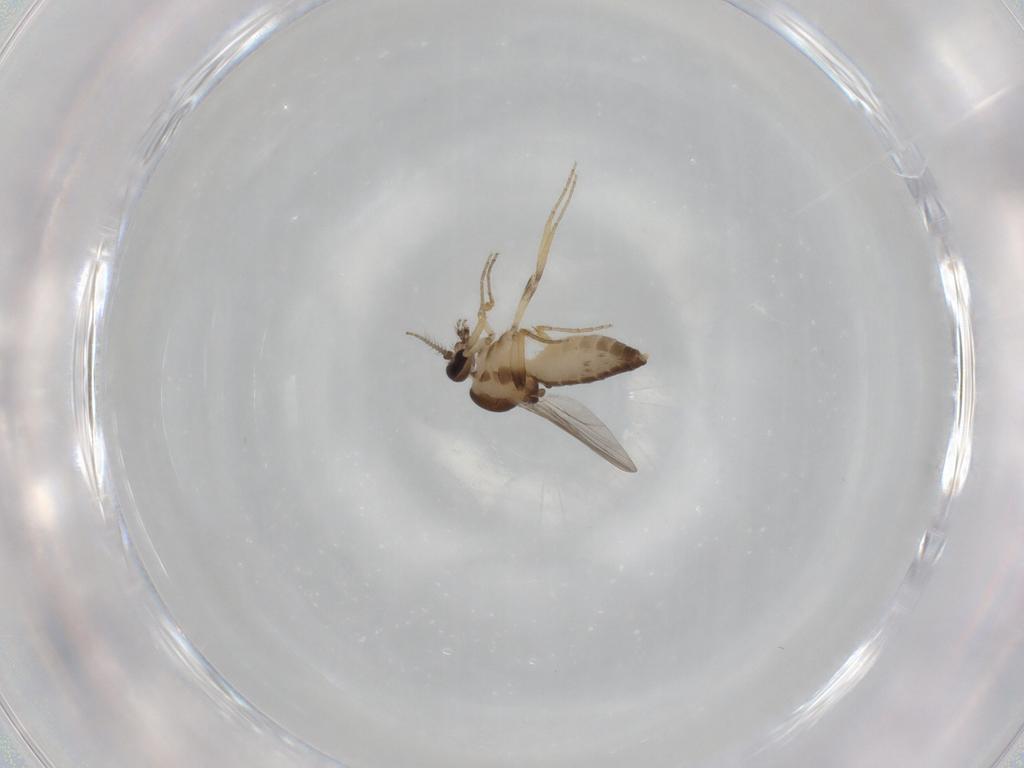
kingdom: Animalia
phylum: Arthropoda
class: Insecta
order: Diptera
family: Ceratopogonidae
